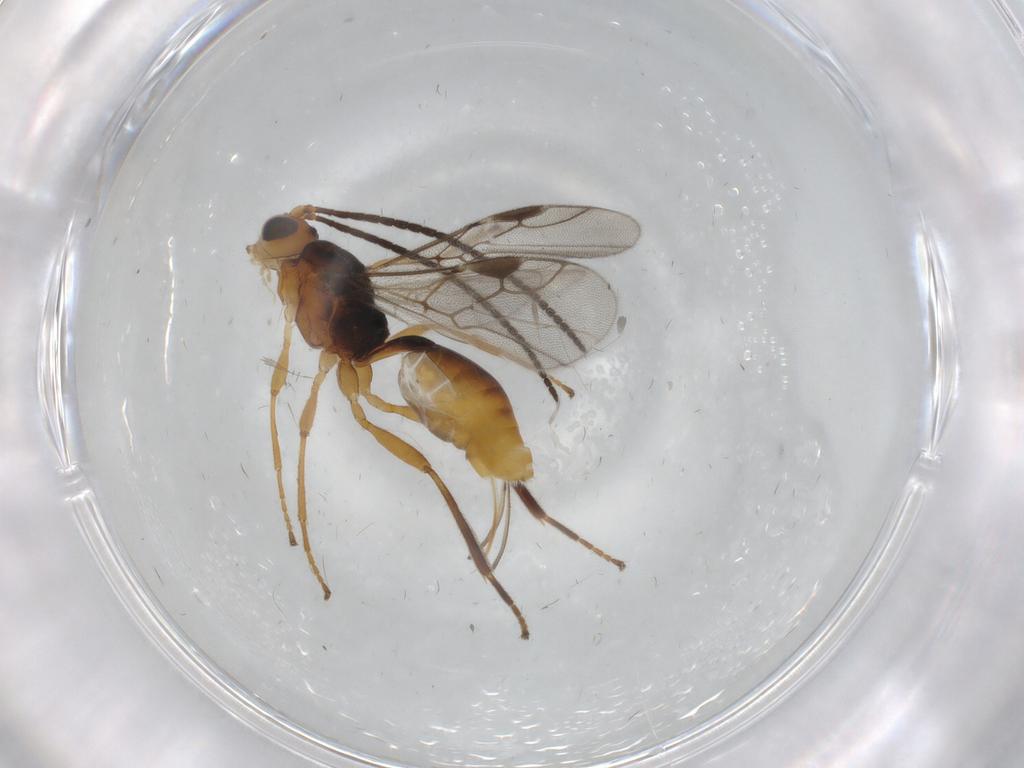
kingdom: Animalia
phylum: Arthropoda
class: Insecta
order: Hymenoptera
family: Braconidae
